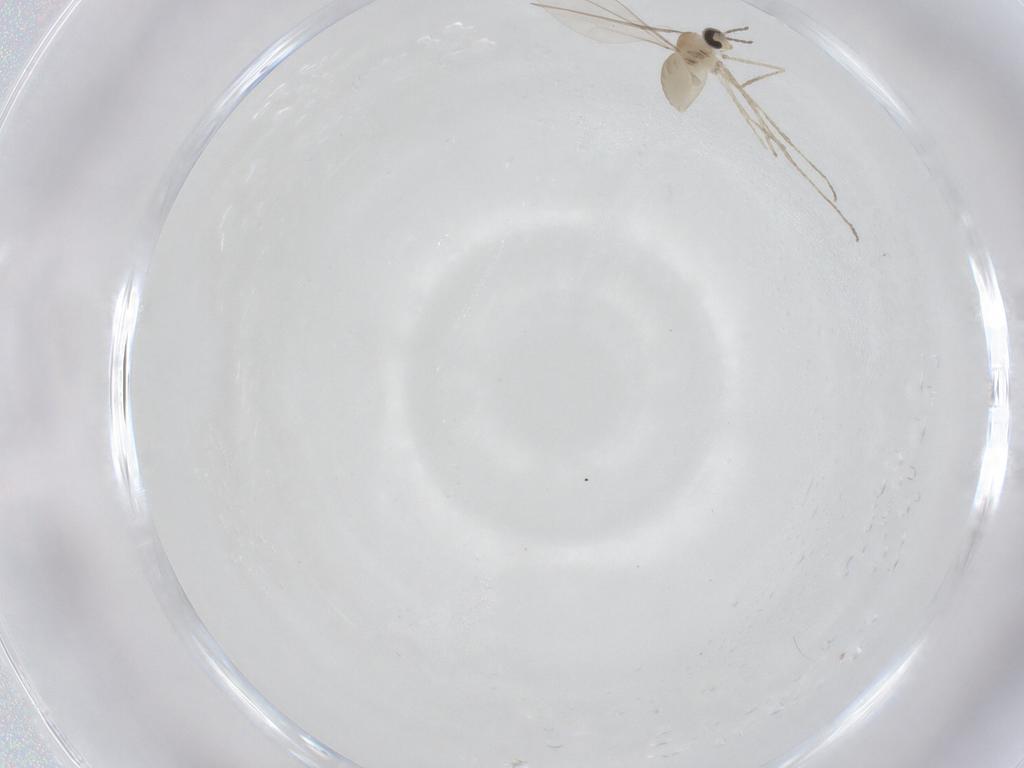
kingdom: Animalia
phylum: Arthropoda
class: Insecta
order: Diptera
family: Cecidomyiidae
